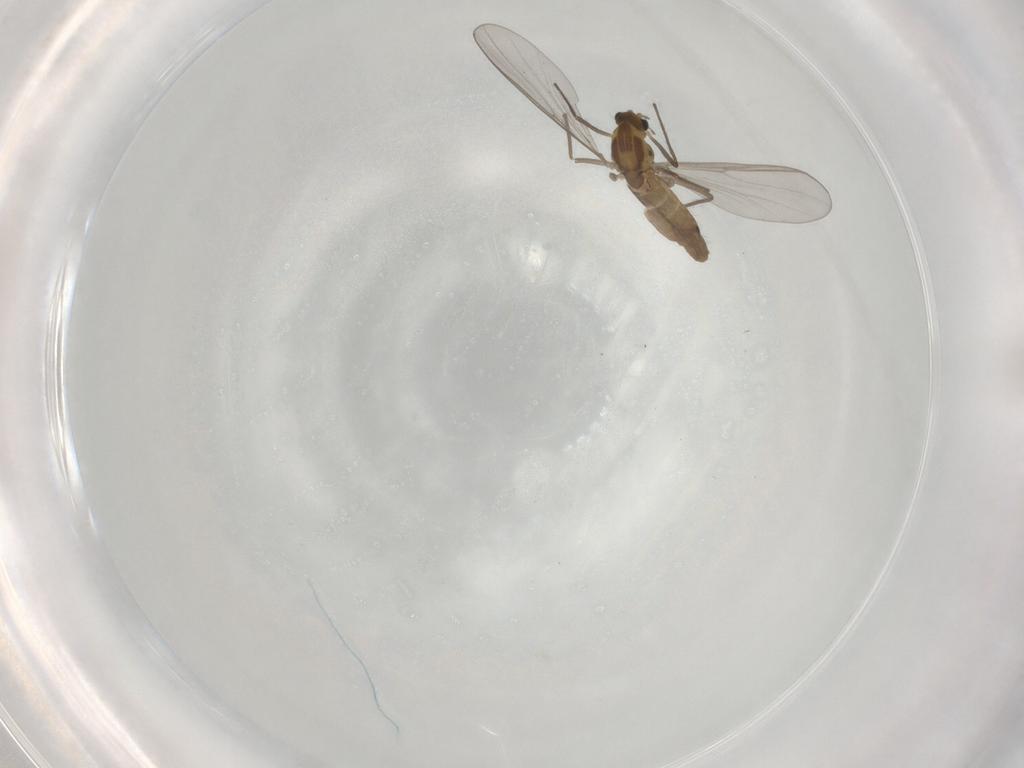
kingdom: Animalia
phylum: Arthropoda
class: Insecta
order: Diptera
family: Chironomidae
